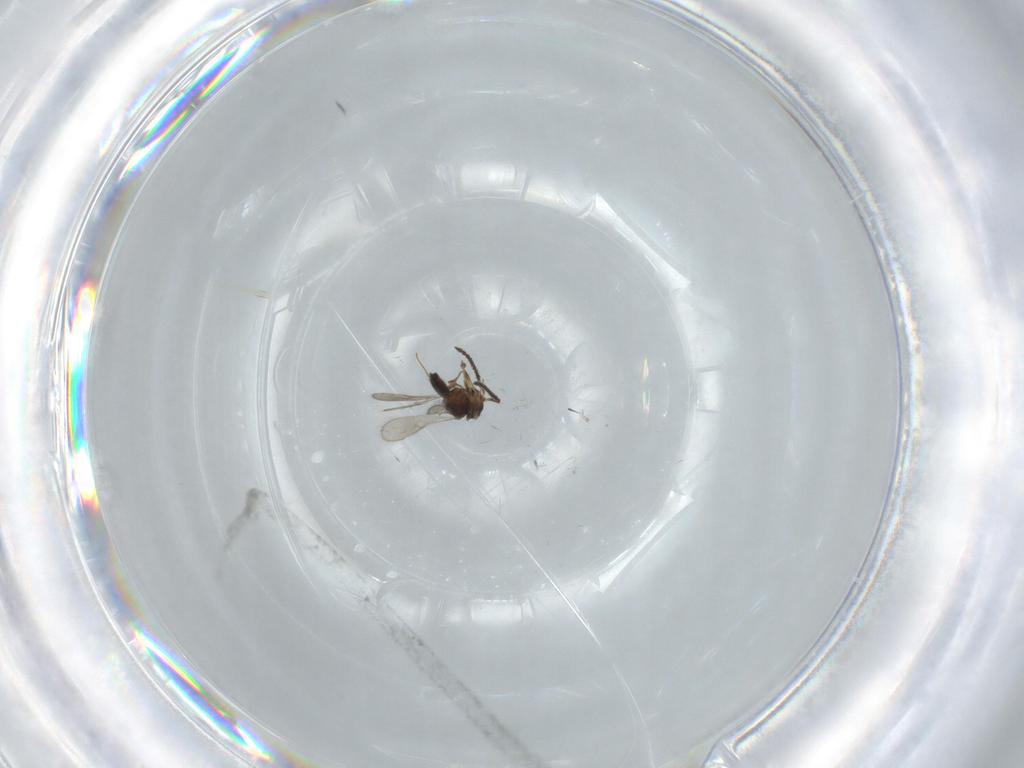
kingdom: Animalia
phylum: Arthropoda
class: Insecta
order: Hymenoptera
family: Scelionidae
